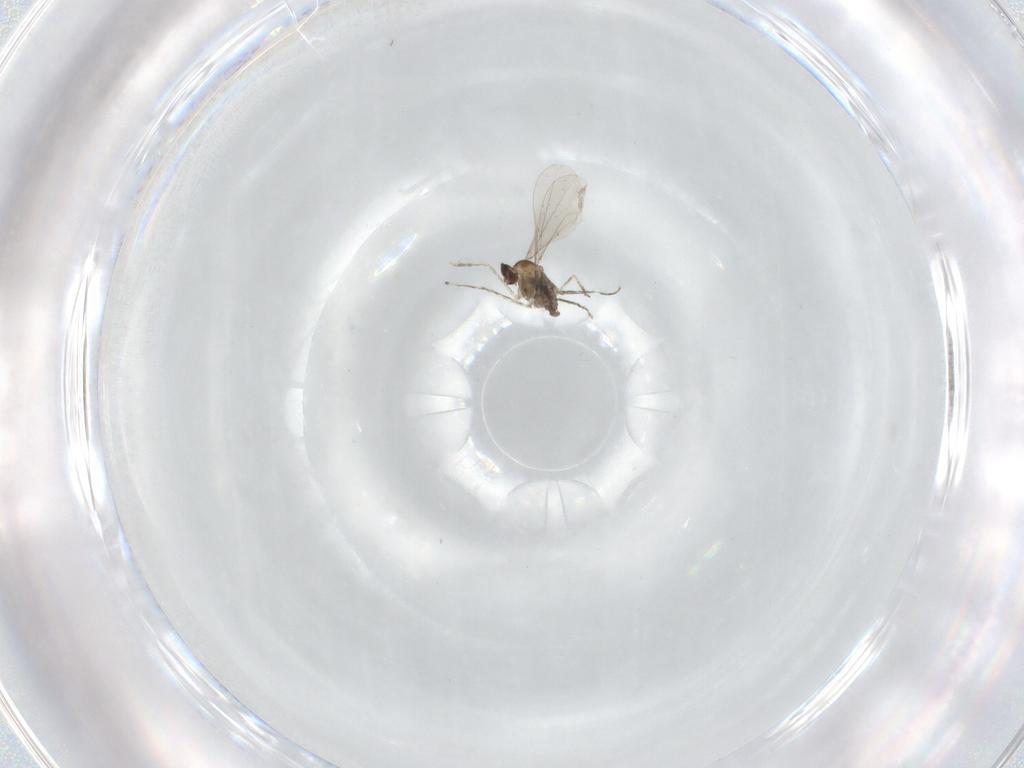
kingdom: Animalia
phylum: Arthropoda
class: Insecta
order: Diptera
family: Cecidomyiidae
